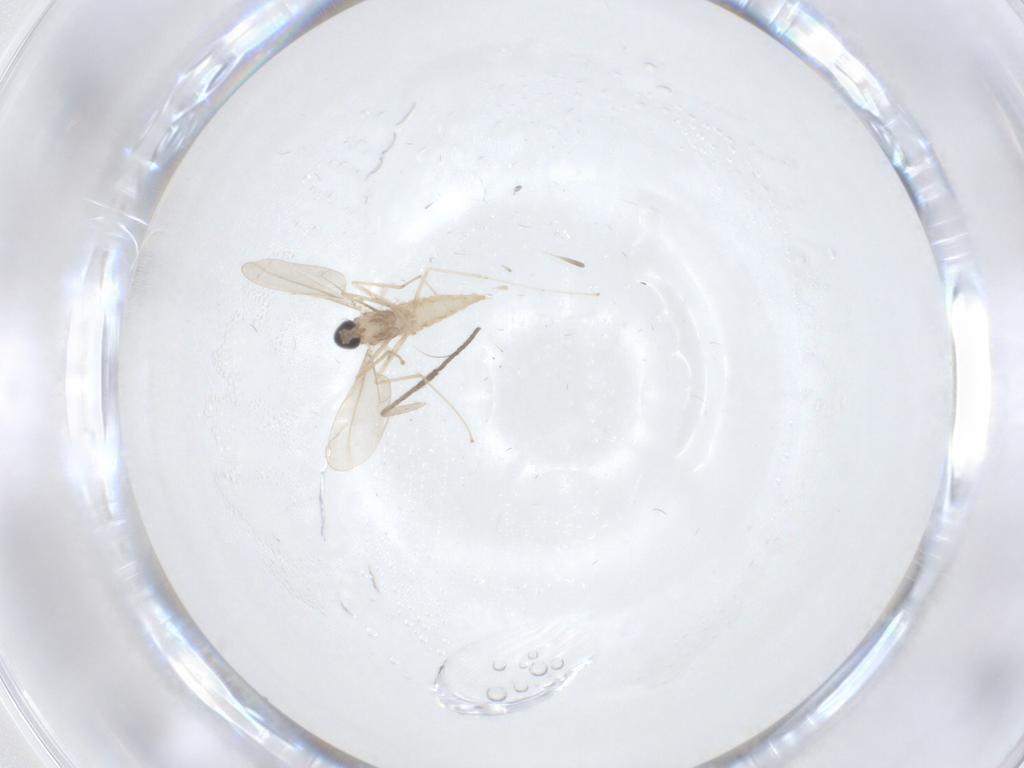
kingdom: Animalia
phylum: Arthropoda
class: Insecta
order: Diptera
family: Cecidomyiidae
